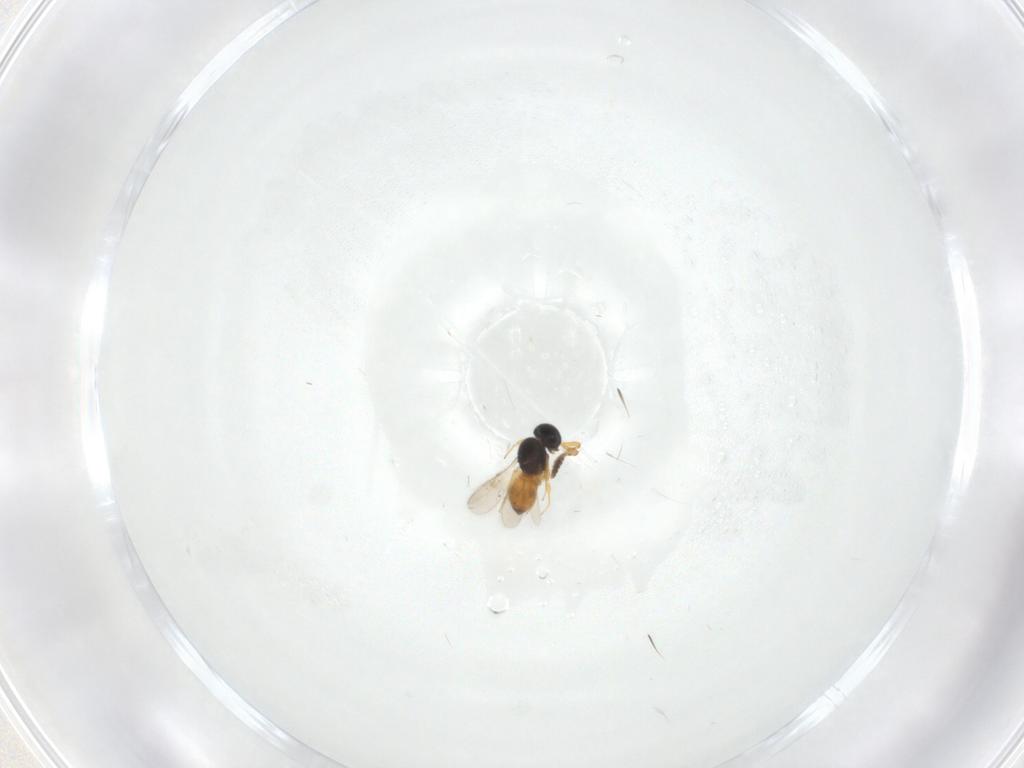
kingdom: Animalia
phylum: Arthropoda
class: Insecta
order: Hymenoptera
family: Scelionidae
